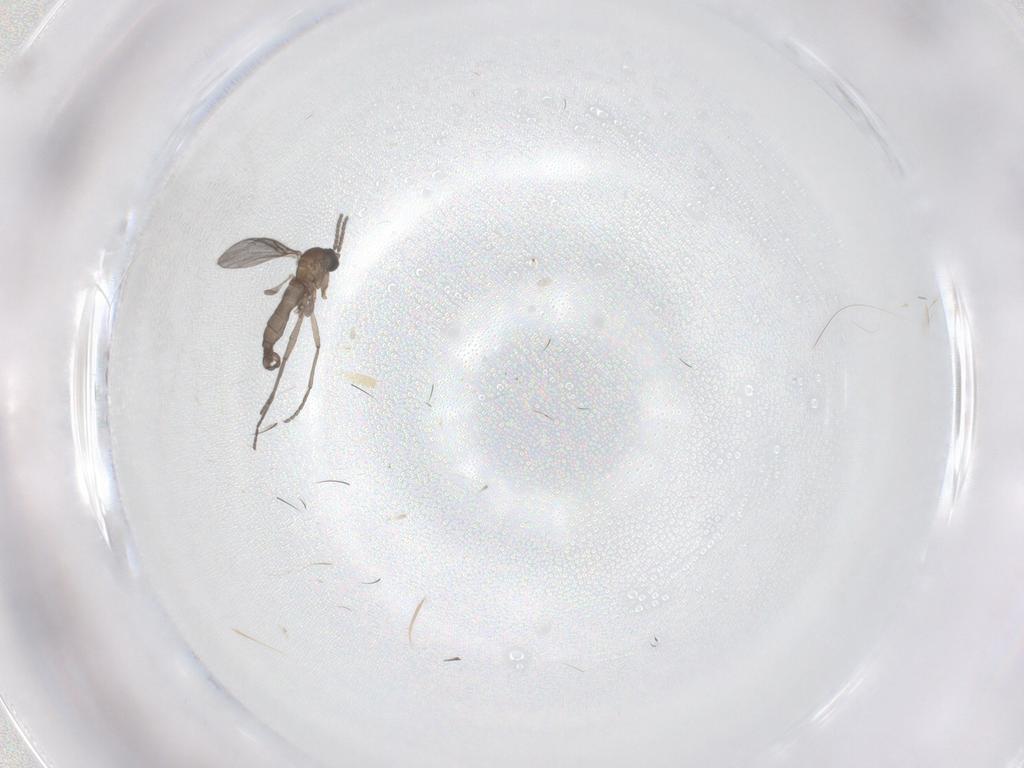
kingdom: Animalia
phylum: Arthropoda
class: Insecta
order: Diptera
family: Sciaridae
